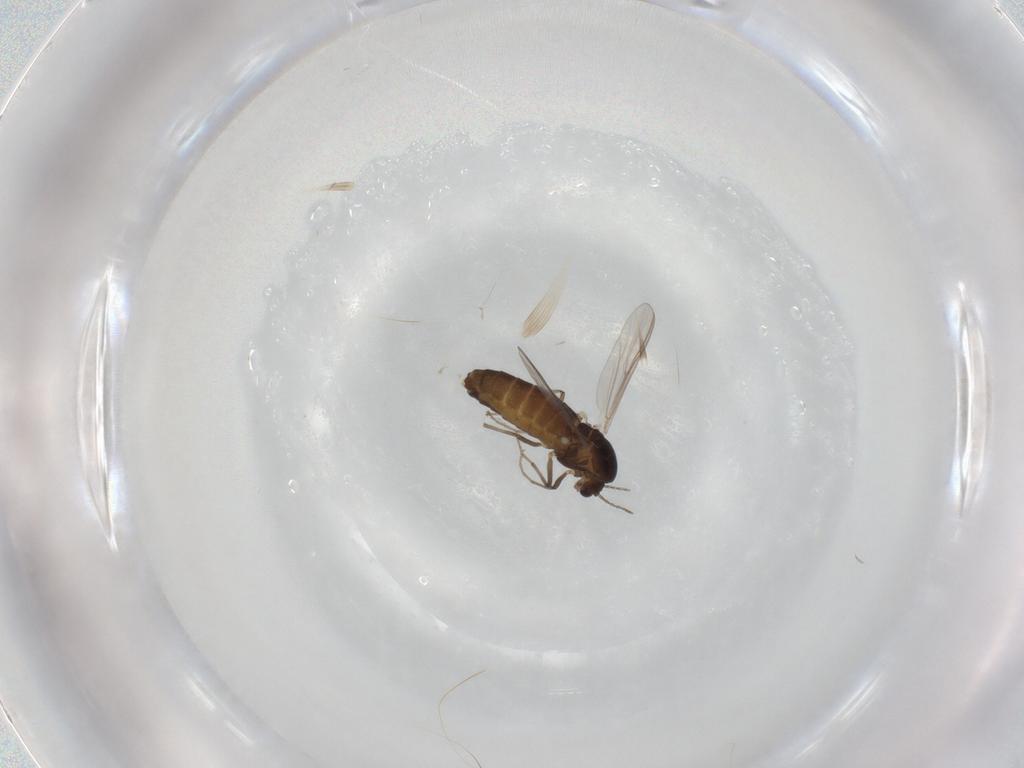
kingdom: Animalia
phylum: Arthropoda
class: Insecta
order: Diptera
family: Chironomidae
